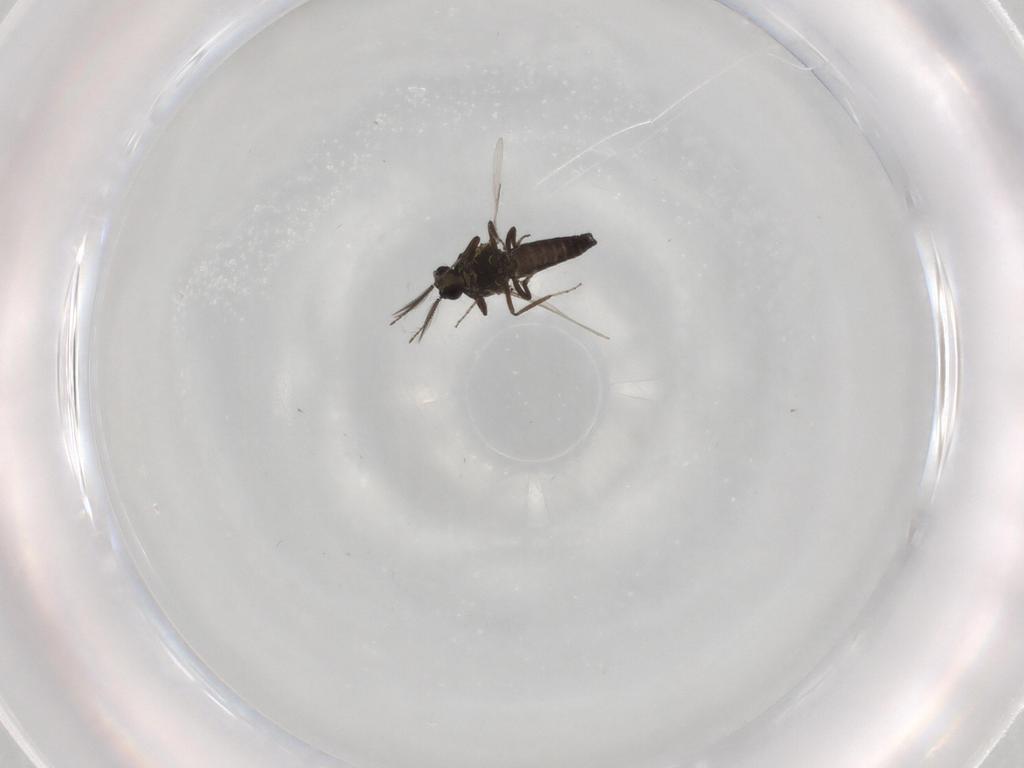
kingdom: Animalia
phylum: Arthropoda
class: Insecta
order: Diptera
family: Ceratopogonidae
